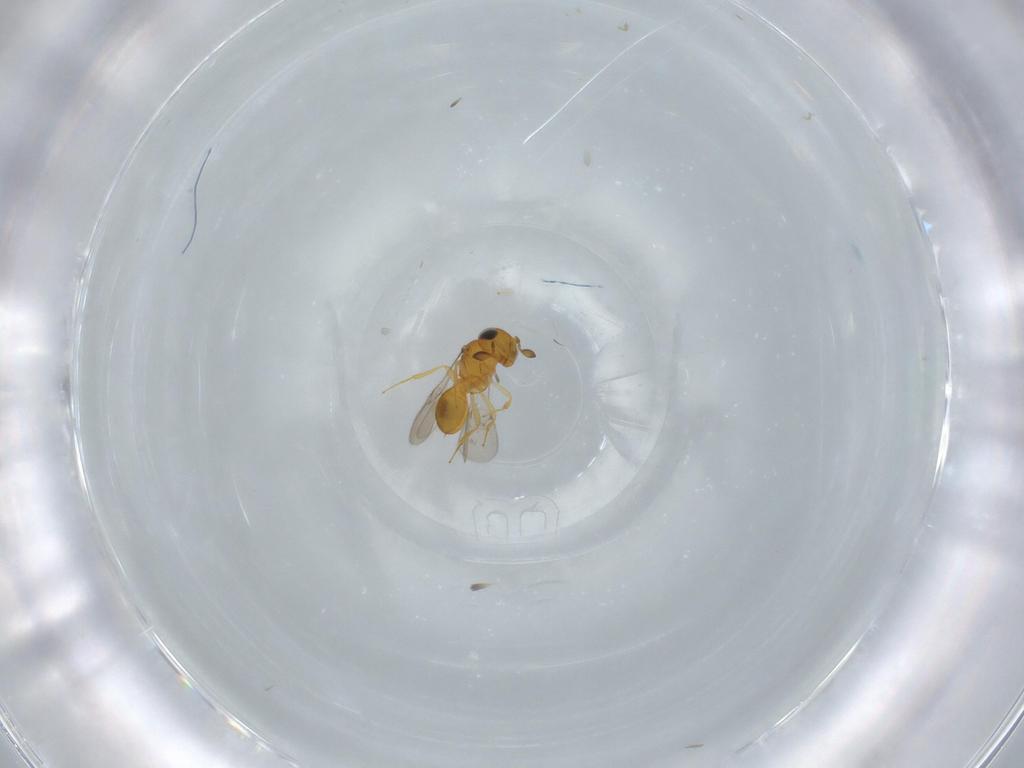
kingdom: Animalia
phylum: Arthropoda
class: Insecta
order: Hymenoptera
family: Scelionidae
